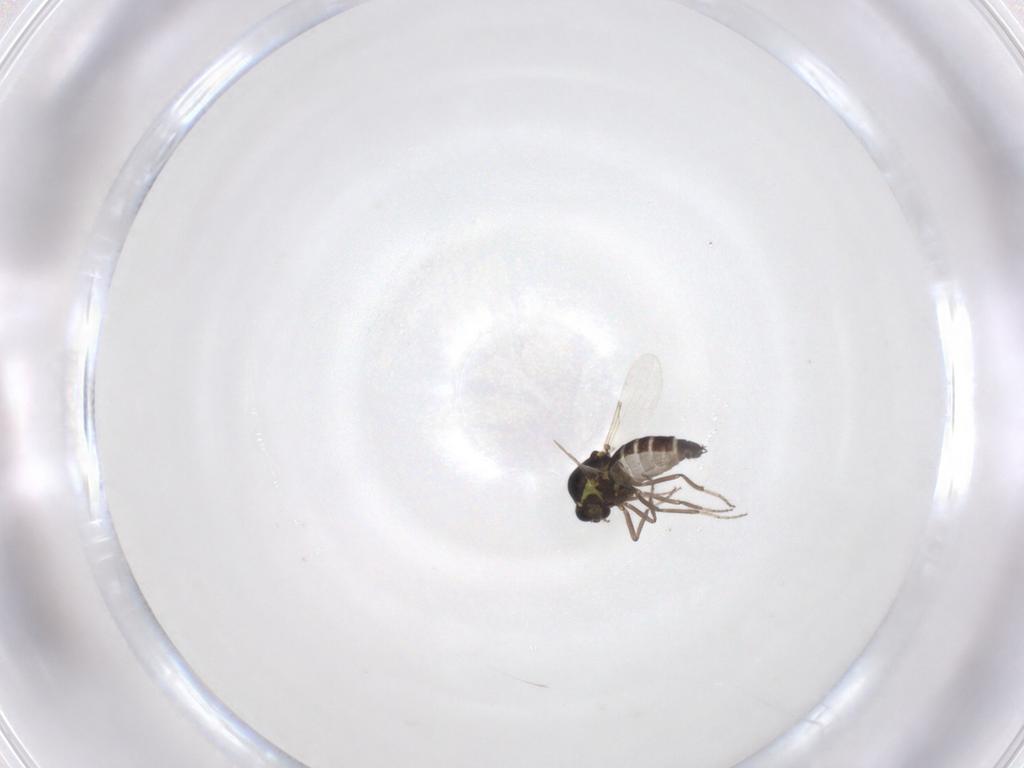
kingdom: Animalia
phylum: Arthropoda
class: Insecta
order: Diptera
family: Ceratopogonidae
